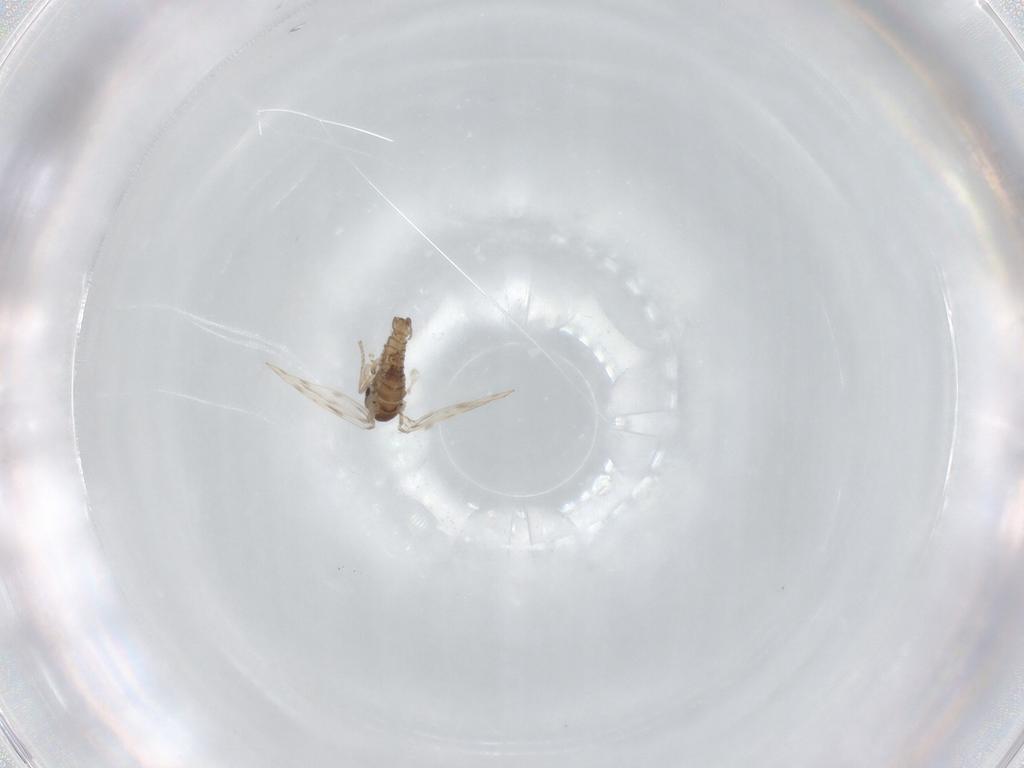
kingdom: Animalia
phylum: Arthropoda
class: Insecta
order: Diptera
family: Psychodidae
